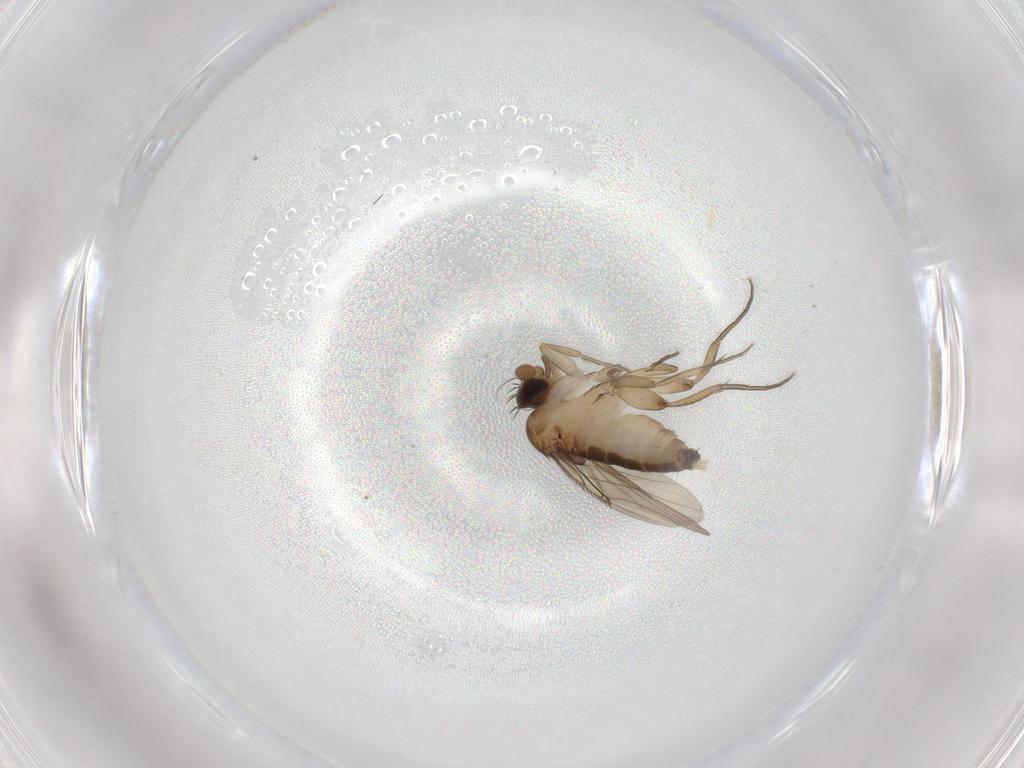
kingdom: Animalia
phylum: Arthropoda
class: Insecta
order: Diptera
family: Phoridae
